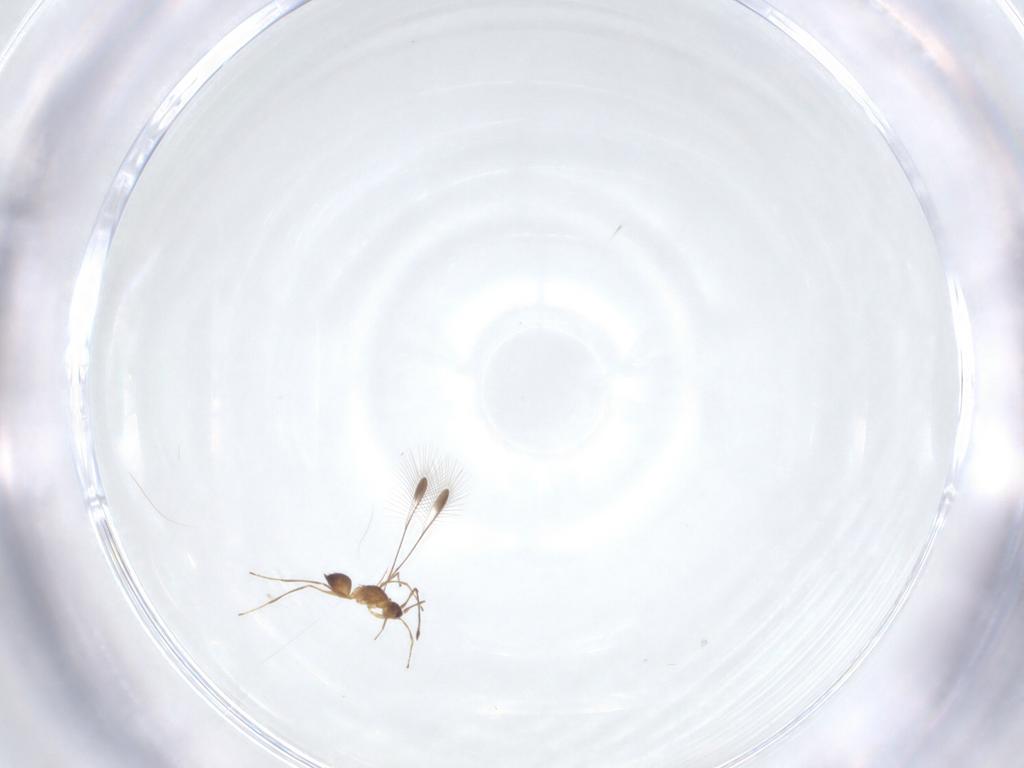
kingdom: Animalia
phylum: Arthropoda
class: Insecta
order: Hymenoptera
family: Mymaridae
